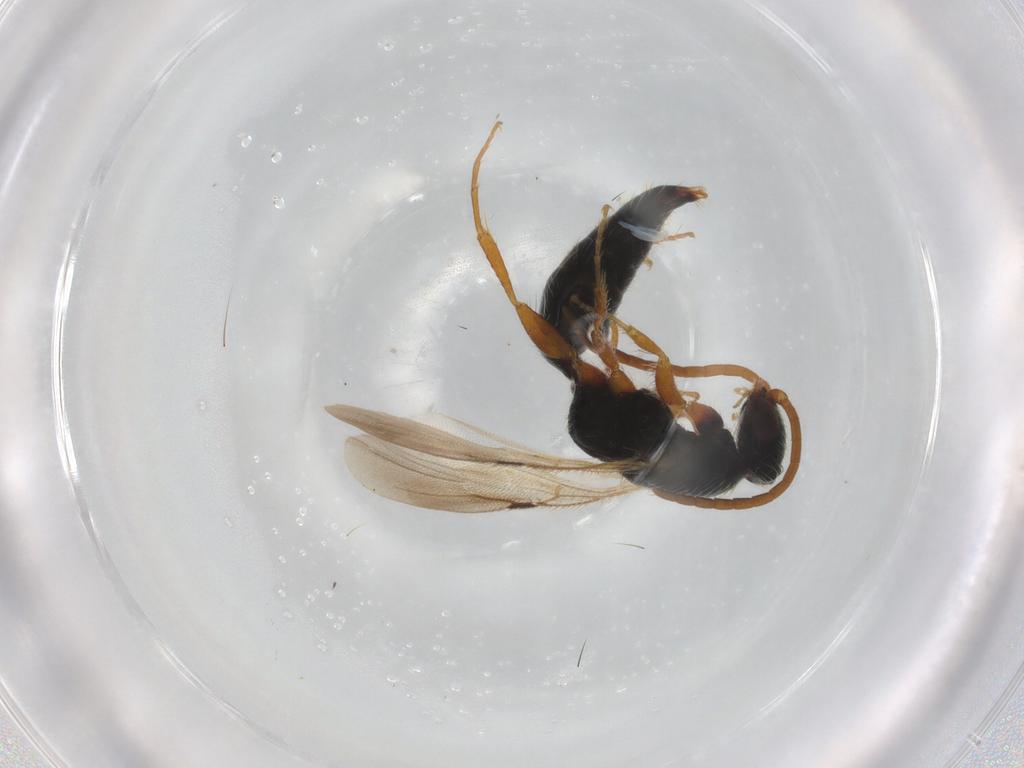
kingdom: Animalia
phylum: Arthropoda
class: Insecta
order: Hymenoptera
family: Bethylidae
